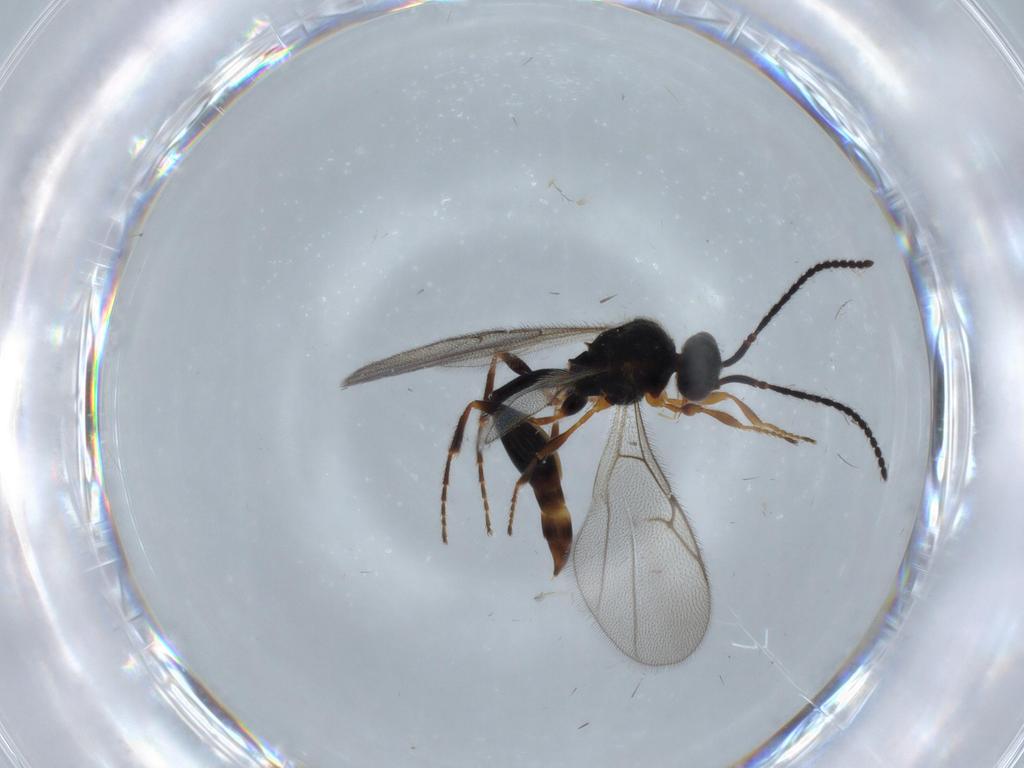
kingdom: Animalia
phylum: Arthropoda
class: Insecta
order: Hymenoptera
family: Diapriidae
